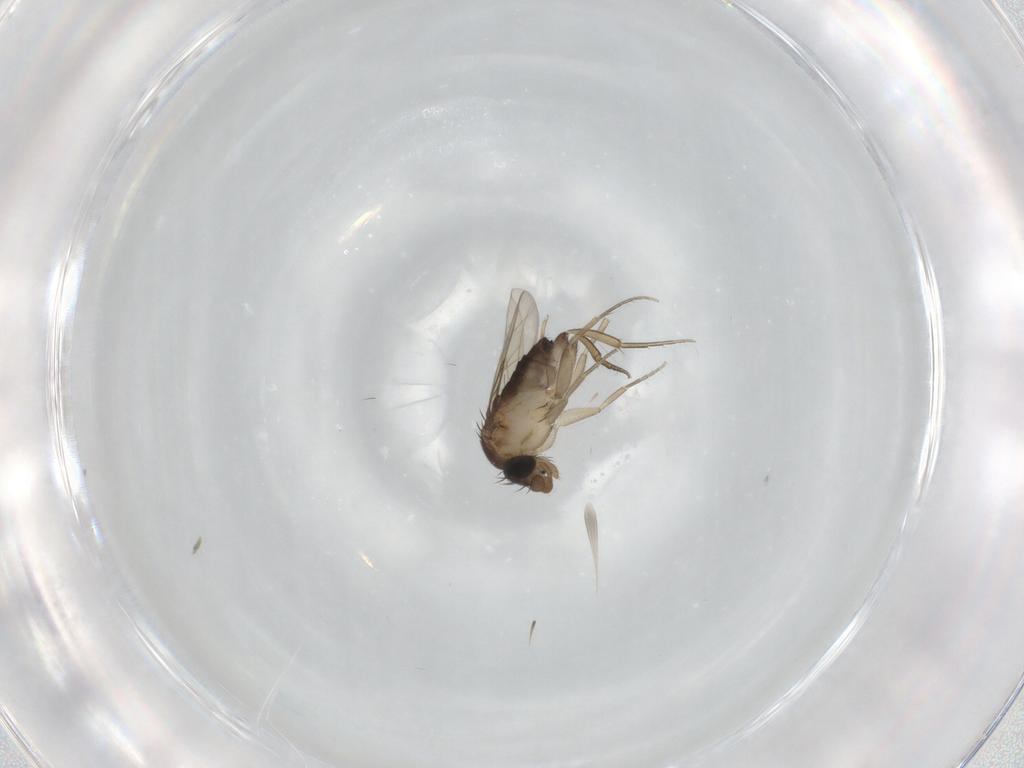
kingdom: Animalia
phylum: Arthropoda
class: Insecta
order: Diptera
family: Phoridae
